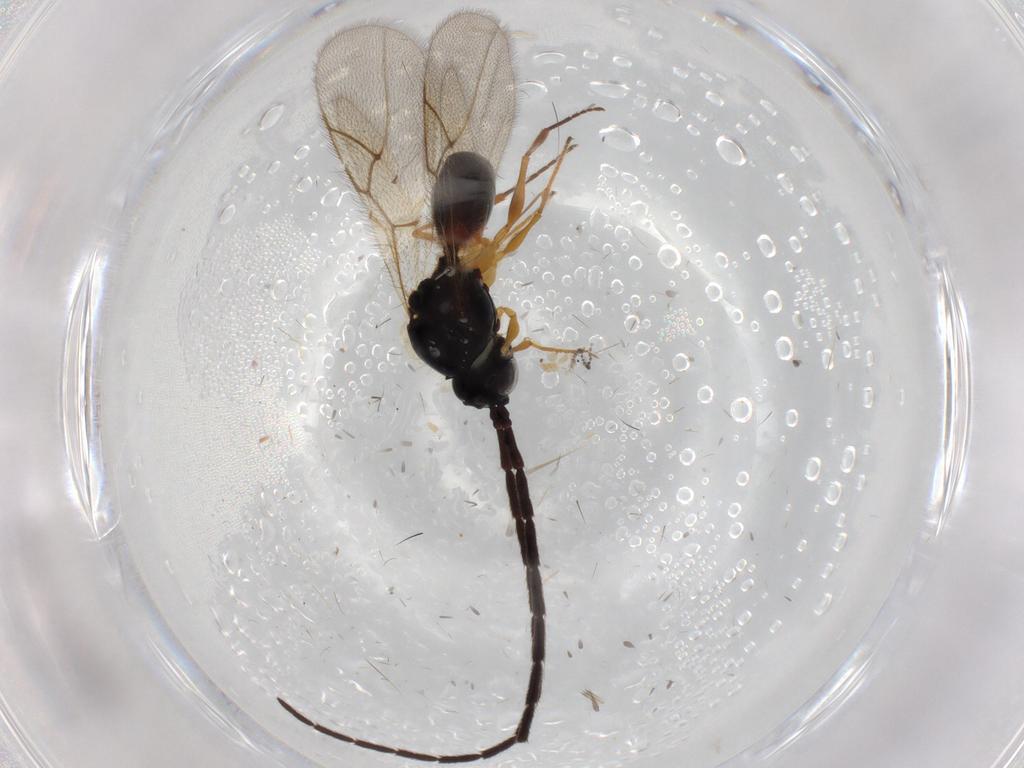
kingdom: Animalia
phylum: Arthropoda
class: Insecta
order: Hymenoptera
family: Figitidae
